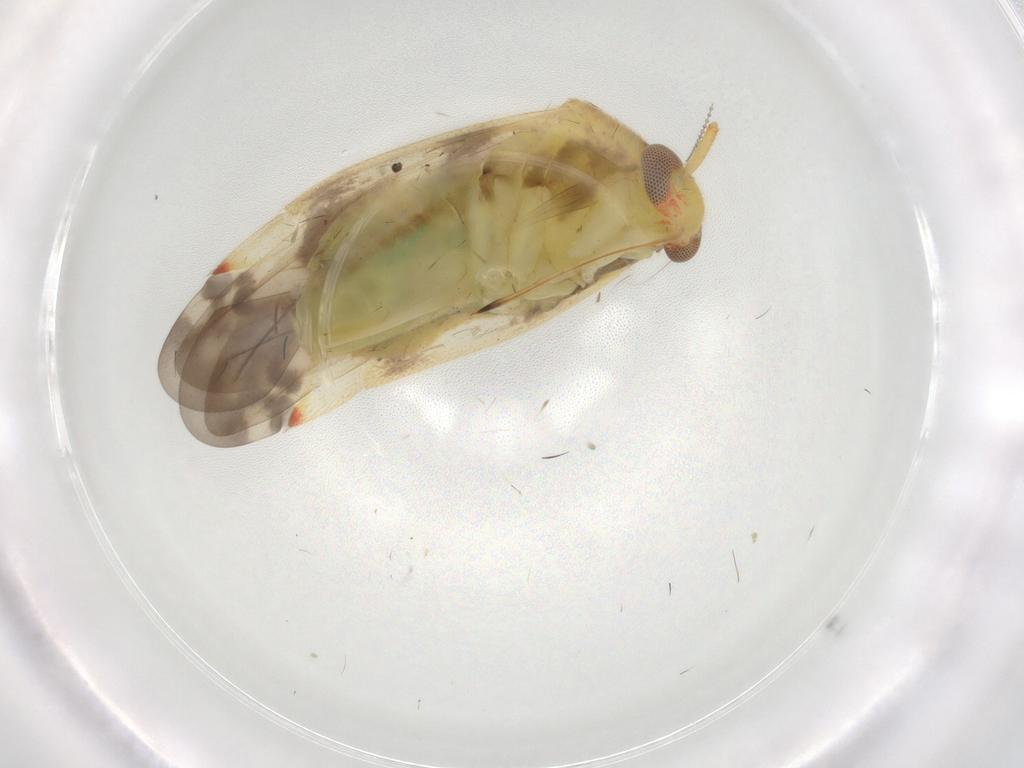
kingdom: Animalia
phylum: Arthropoda
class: Insecta
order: Hemiptera
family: Miridae
